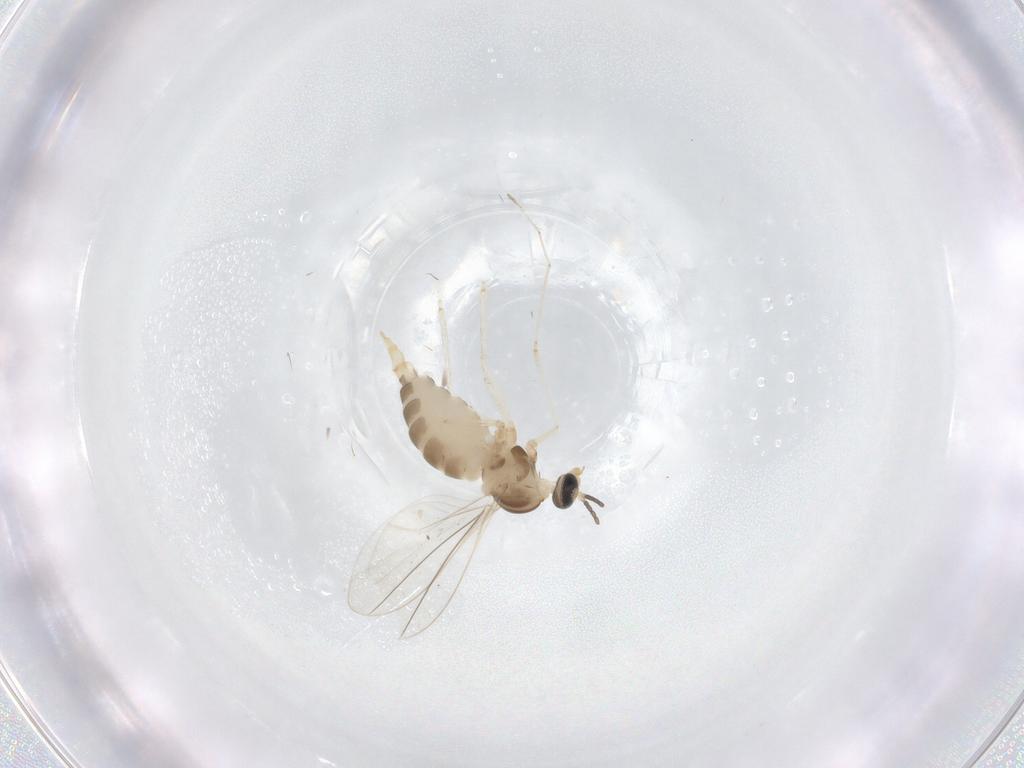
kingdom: Animalia
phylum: Arthropoda
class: Insecta
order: Diptera
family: Cecidomyiidae
